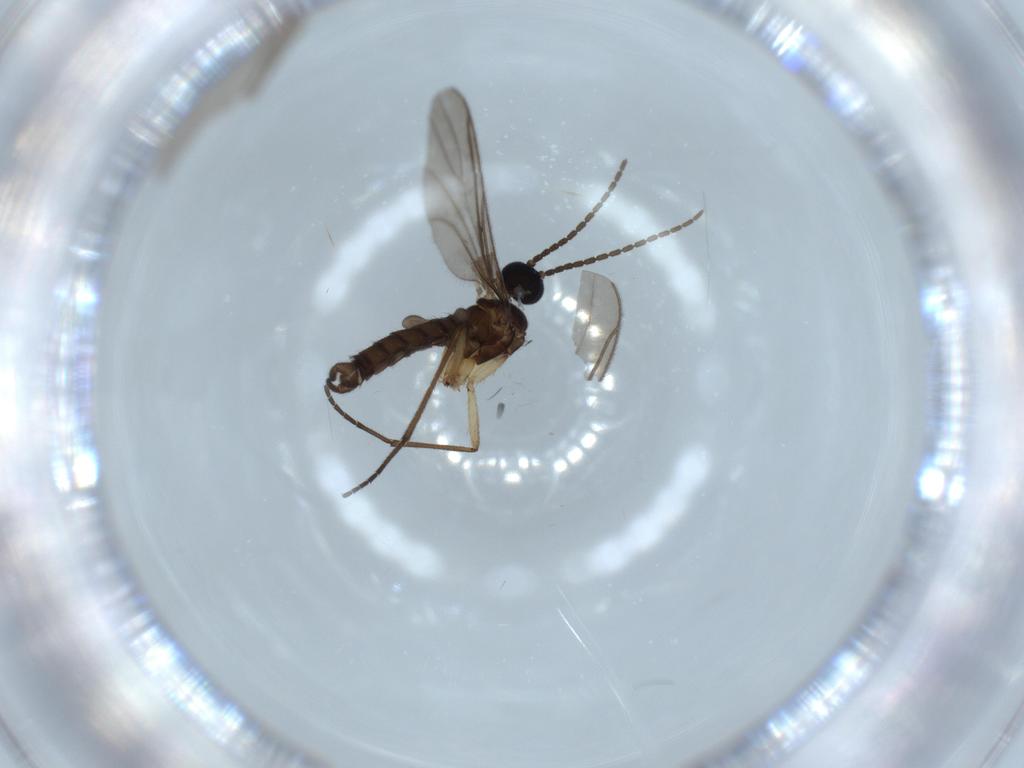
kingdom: Animalia
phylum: Arthropoda
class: Insecta
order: Diptera
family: Sciaridae
